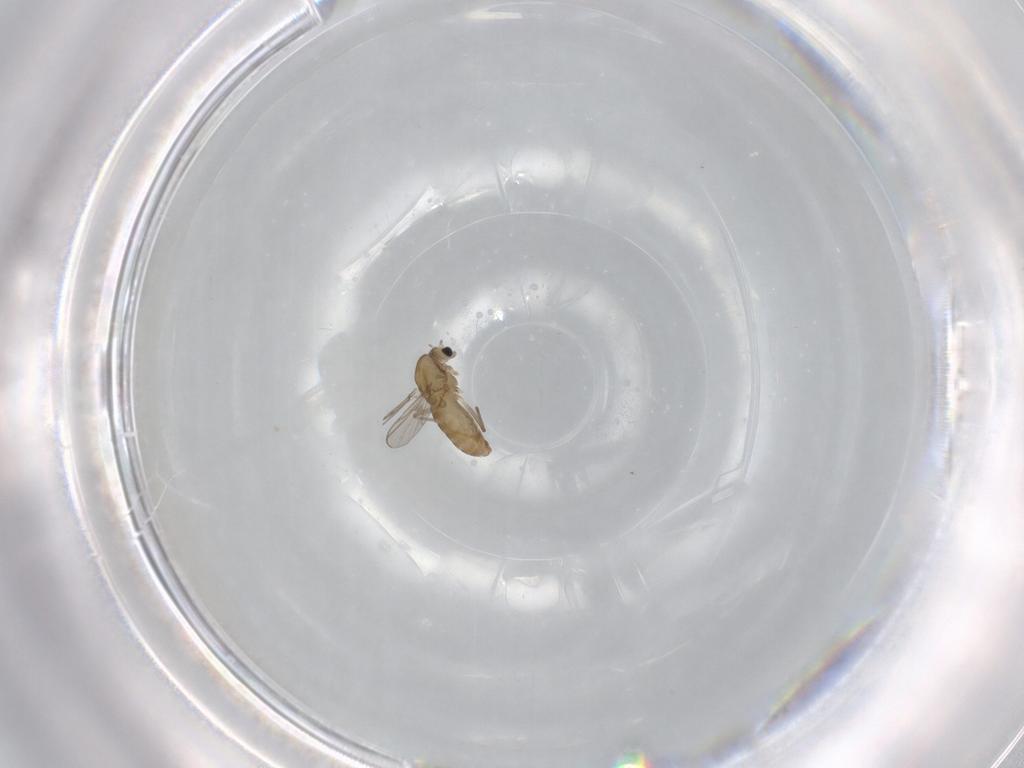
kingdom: Animalia
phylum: Arthropoda
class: Insecta
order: Diptera
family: Chironomidae
